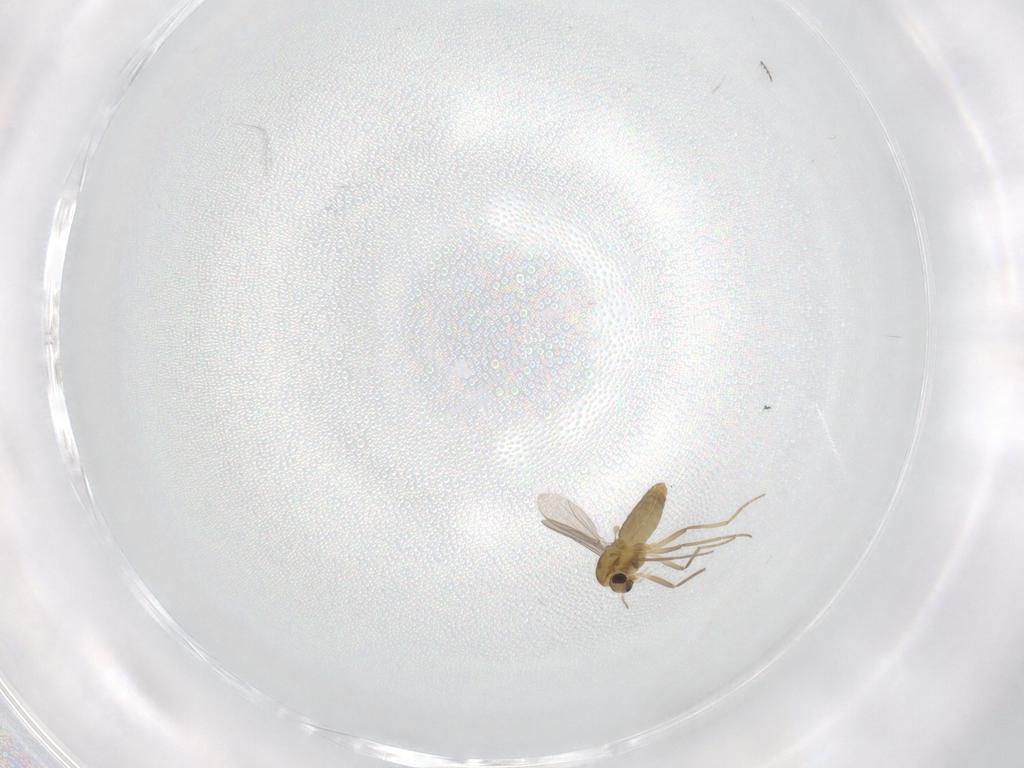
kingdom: Animalia
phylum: Arthropoda
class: Insecta
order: Diptera
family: Chironomidae
